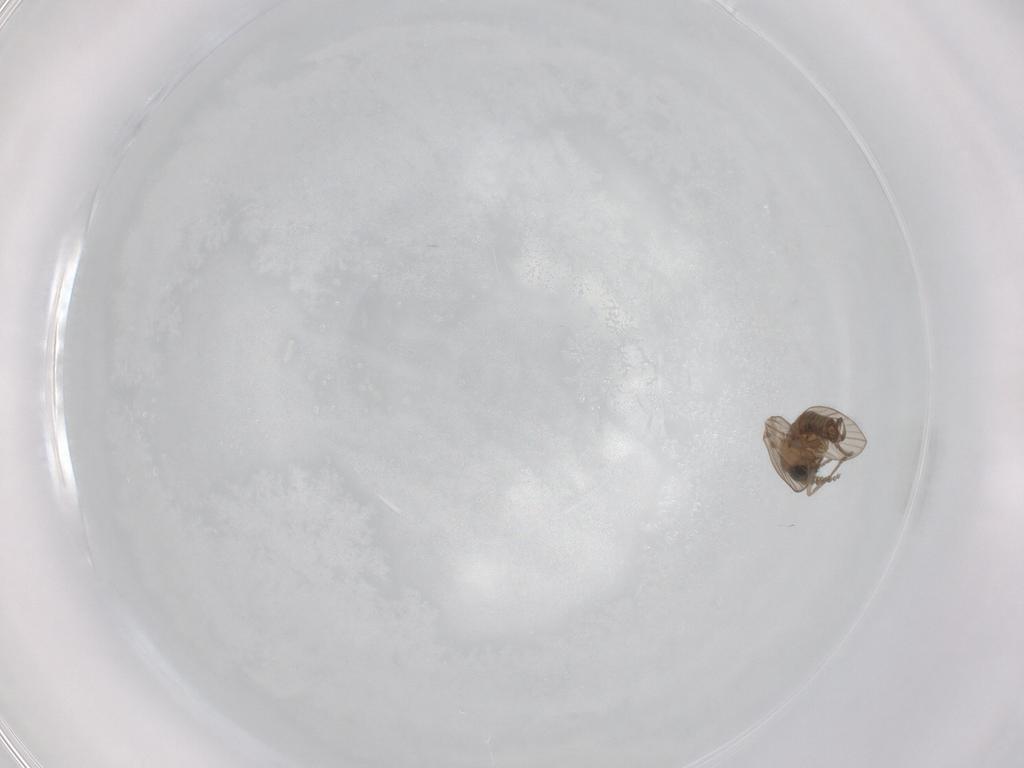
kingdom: Animalia
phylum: Arthropoda
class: Insecta
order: Diptera
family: Psychodidae
